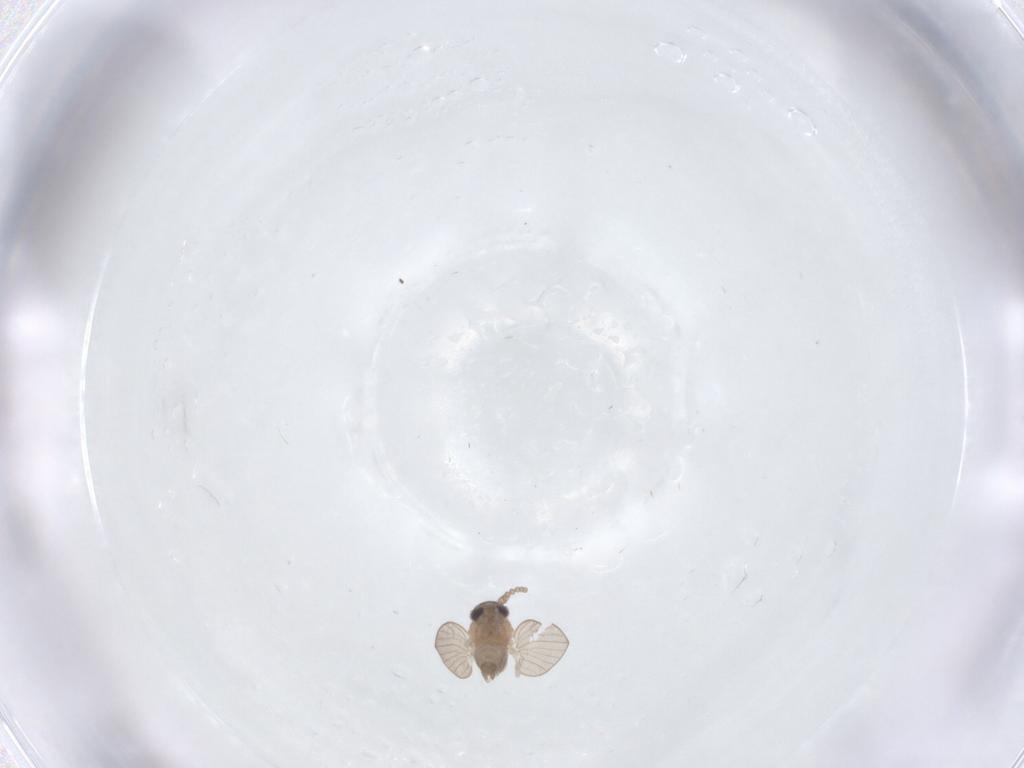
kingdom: Animalia
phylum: Arthropoda
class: Insecta
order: Diptera
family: Psychodidae
